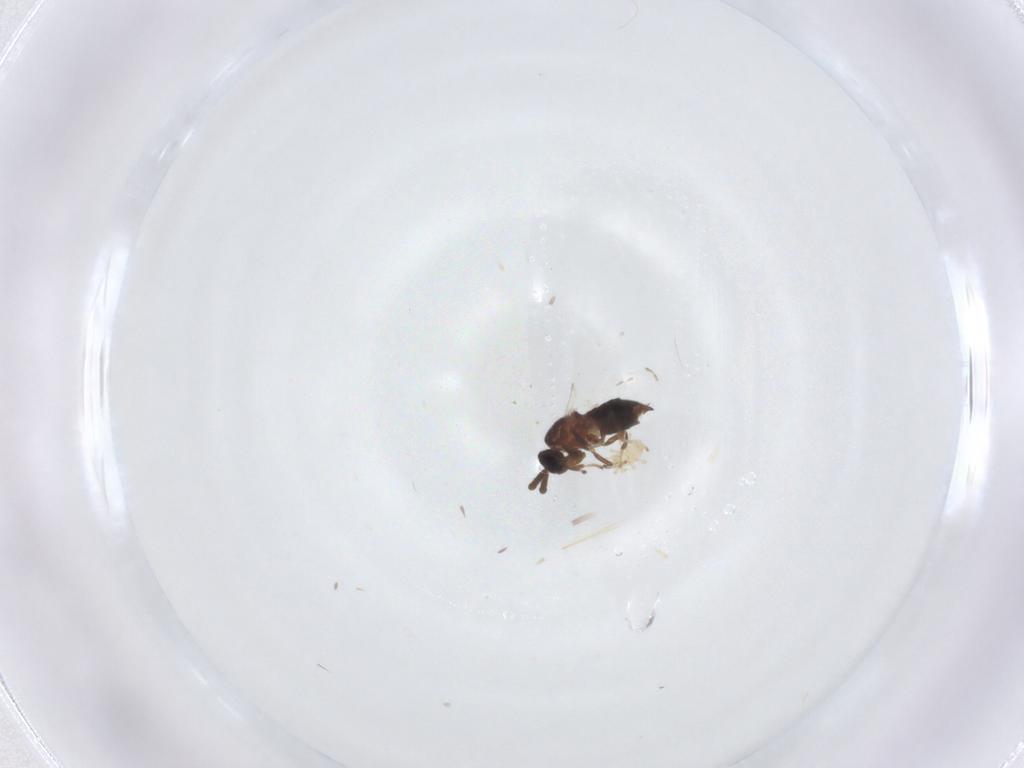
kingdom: Animalia
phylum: Arthropoda
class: Insecta
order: Diptera
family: Scatopsidae
